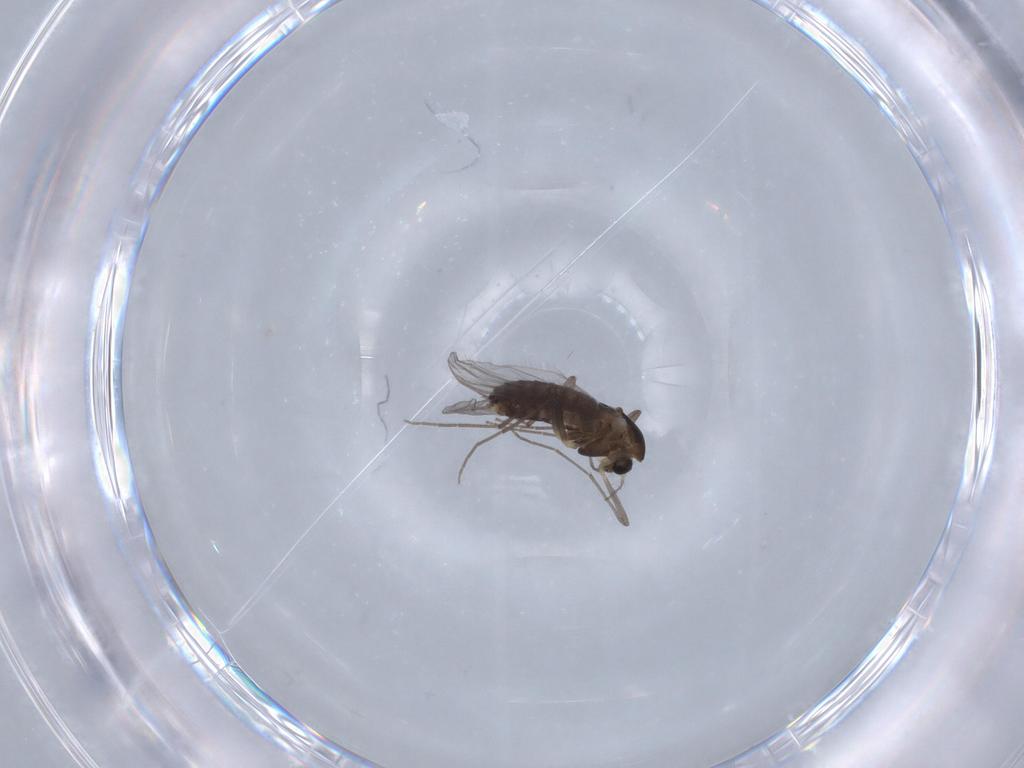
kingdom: Animalia
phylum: Arthropoda
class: Insecta
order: Diptera
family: Chironomidae
